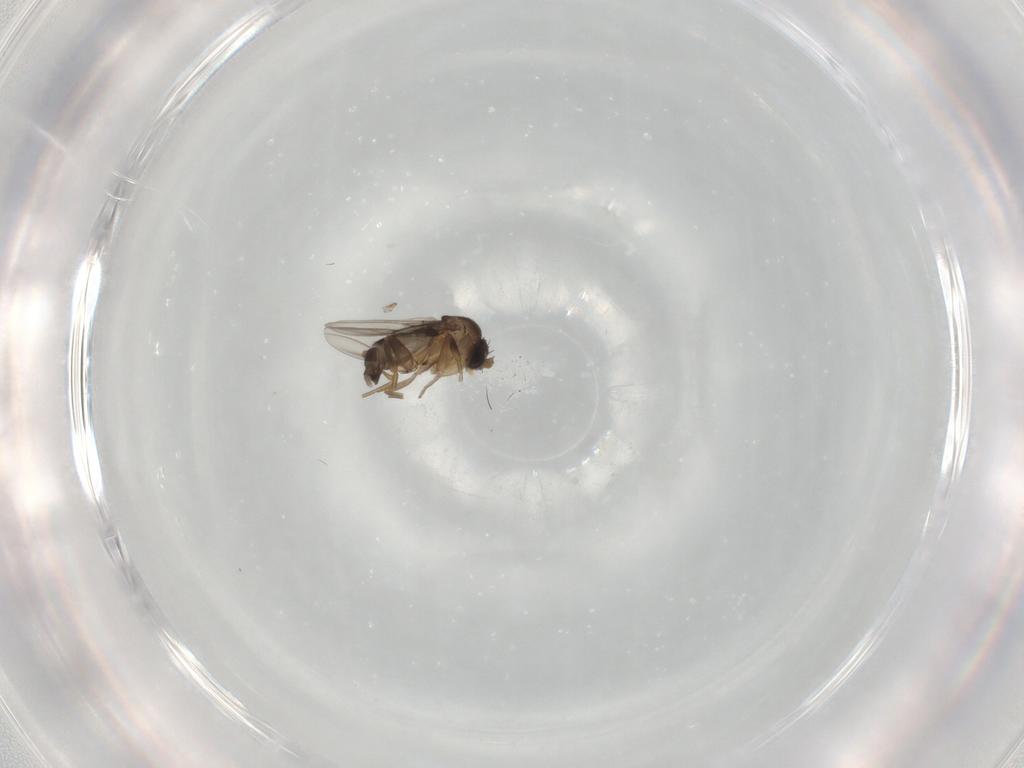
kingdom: Animalia
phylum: Arthropoda
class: Insecta
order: Diptera
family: Phoridae
